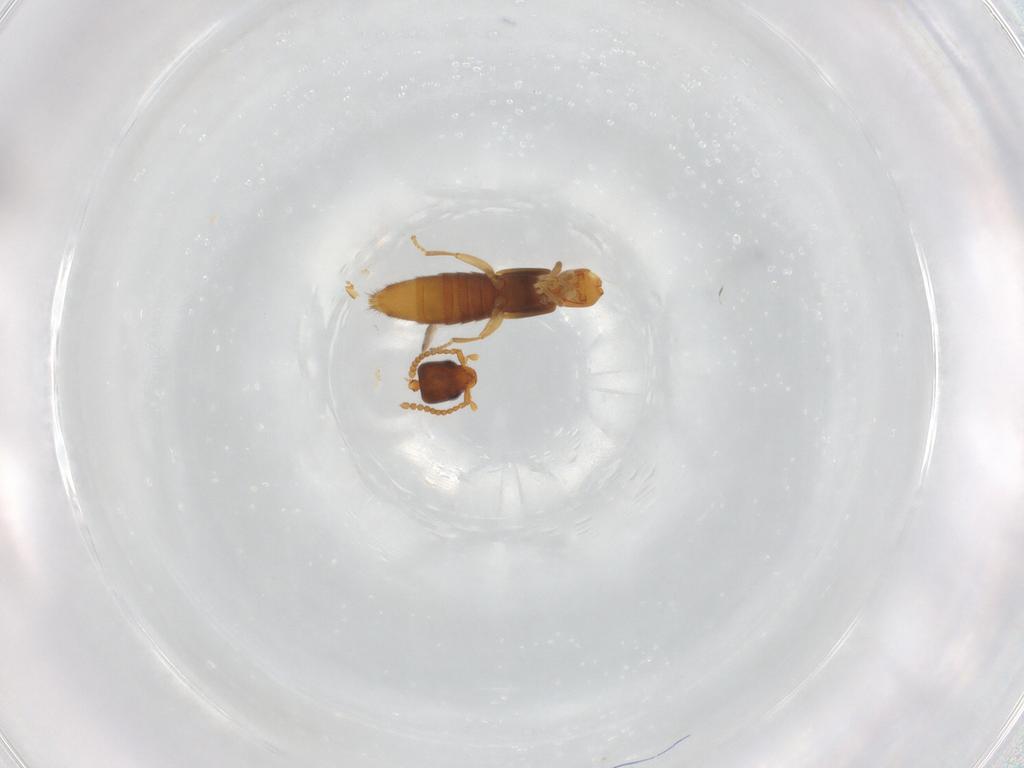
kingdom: Animalia
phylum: Arthropoda
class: Insecta
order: Coleoptera
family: Staphylinidae
